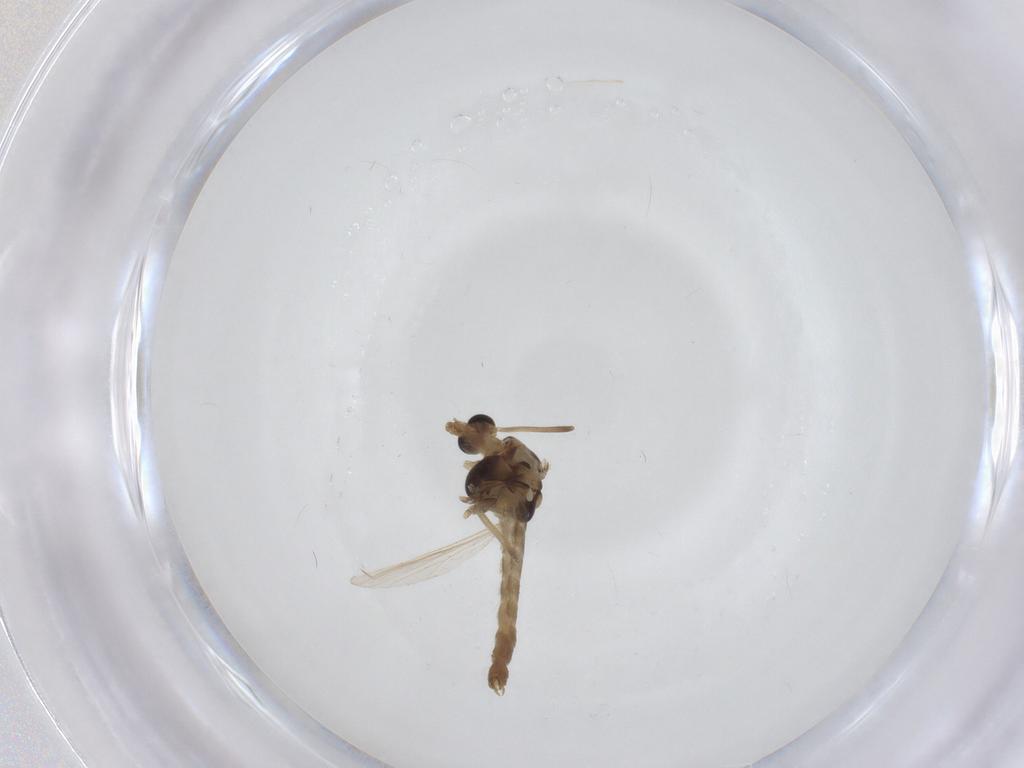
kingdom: Animalia
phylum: Arthropoda
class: Insecta
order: Diptera
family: Chironomidae
